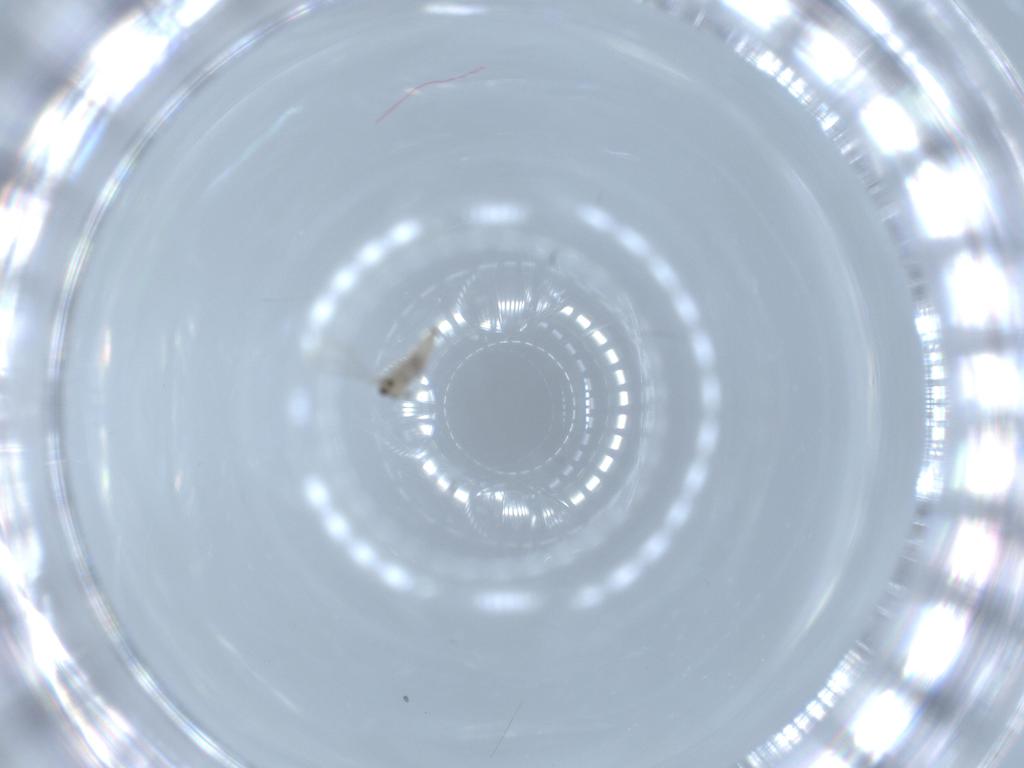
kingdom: Animalia
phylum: Arthropoda
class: Insecta
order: Diptera
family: Cecidomyiidae
